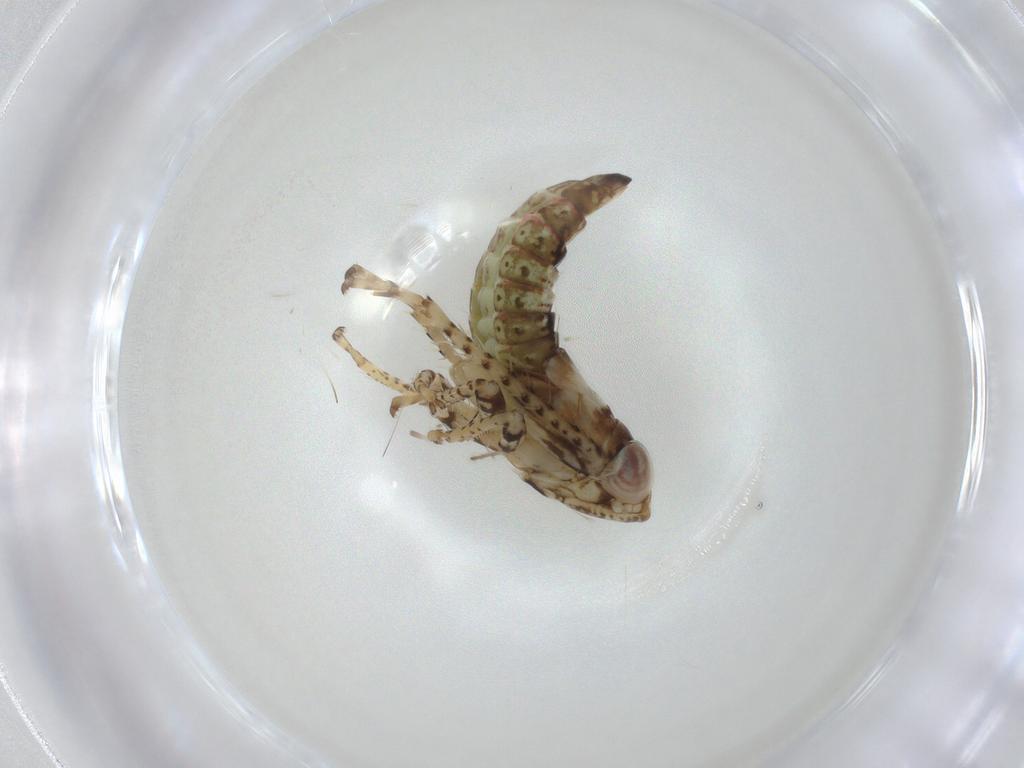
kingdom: Animalia
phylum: Arthropoda
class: Insecta
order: Hemiptera
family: Cicadellidae
